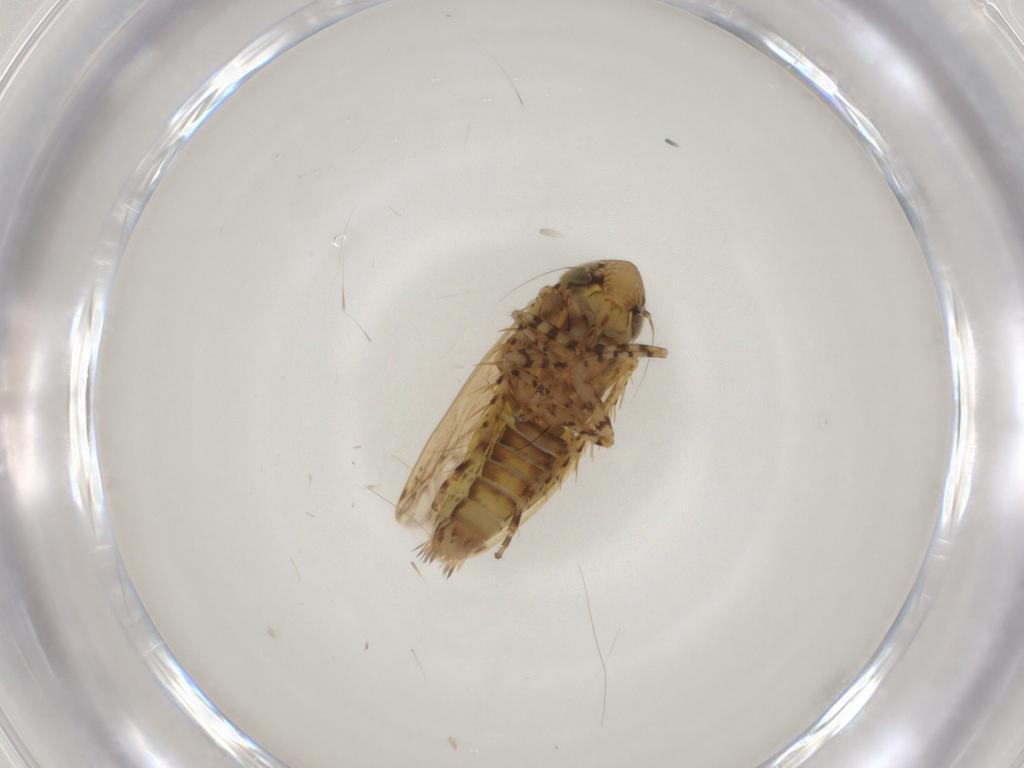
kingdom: Animalia
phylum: Arthropoda
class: Insecta
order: Hemiptera
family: Cicadellidae
